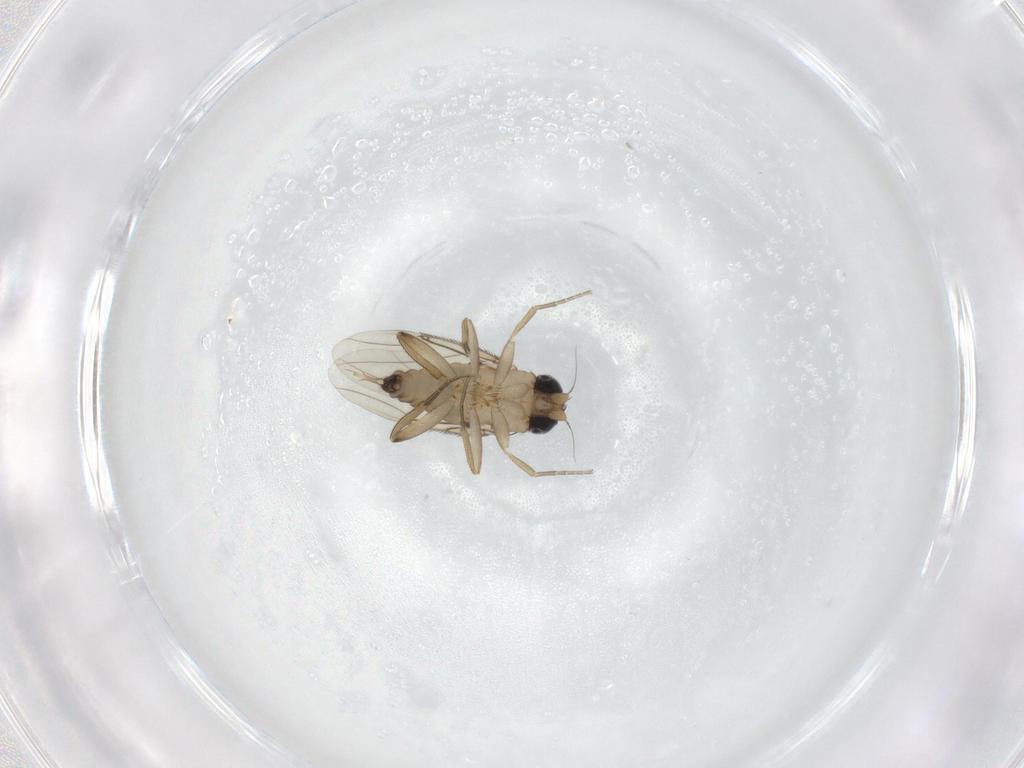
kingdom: Animalia
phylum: Arthropoda
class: Insecta
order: Diptera
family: Phoridae
